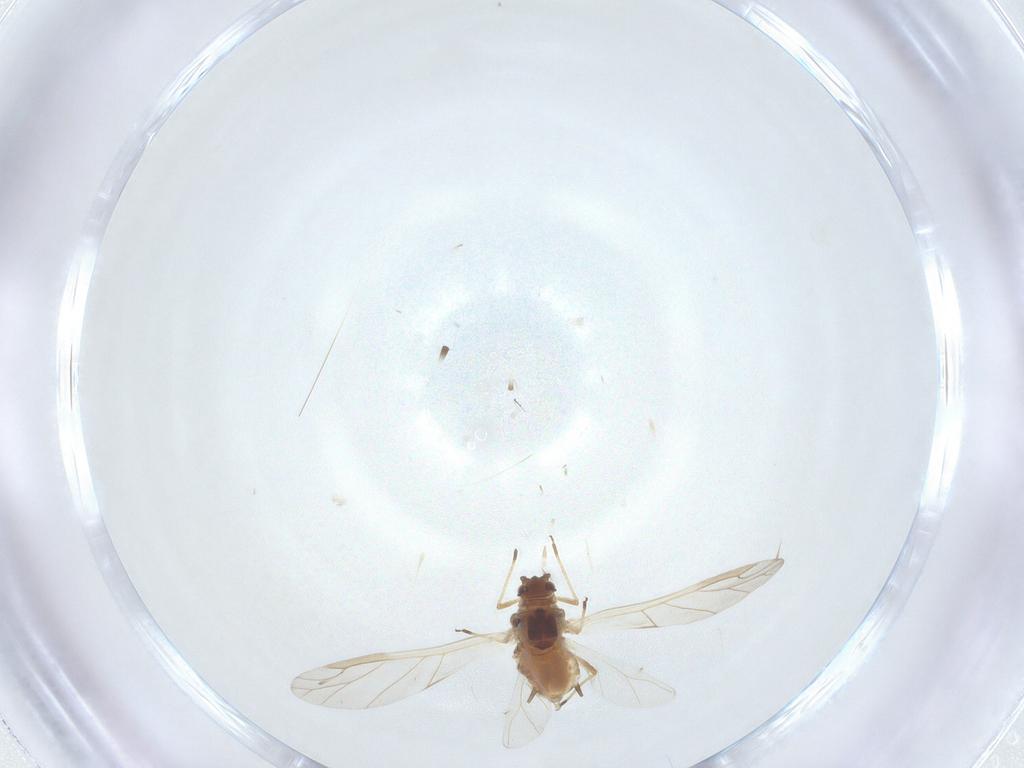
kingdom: Animalia
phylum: Arthropoda
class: Insecta
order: Hemiptera
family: Aphididae
